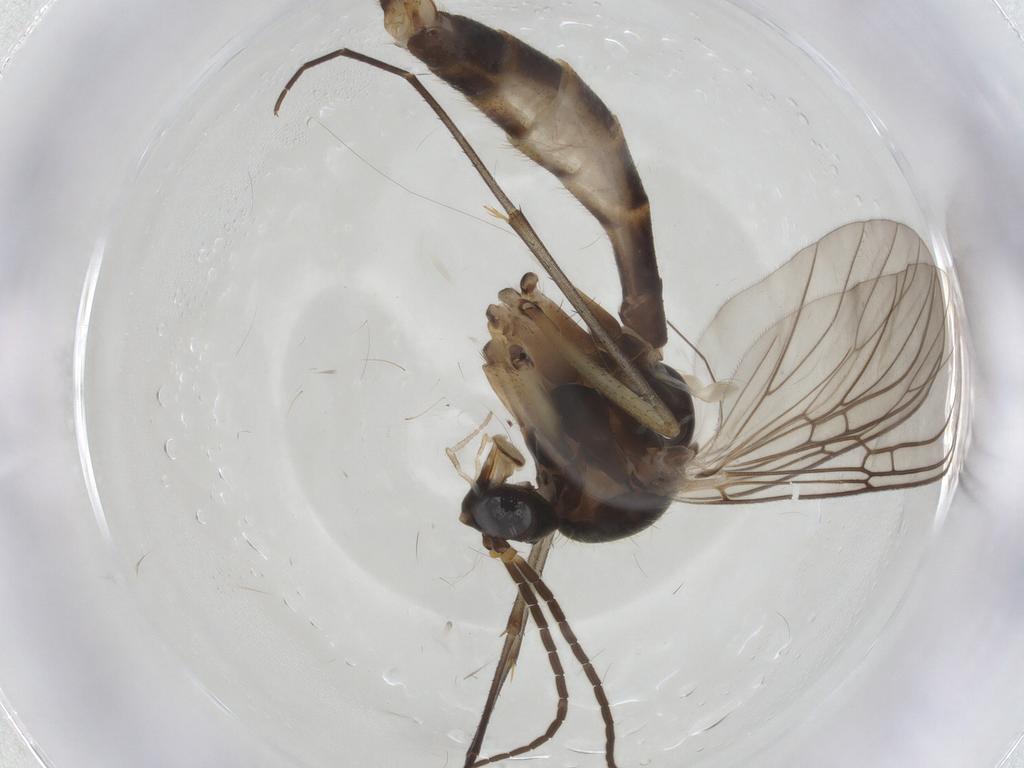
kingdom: Animalia
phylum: Arthropoda
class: Insecta
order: Diptera
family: Mycetophilidae
